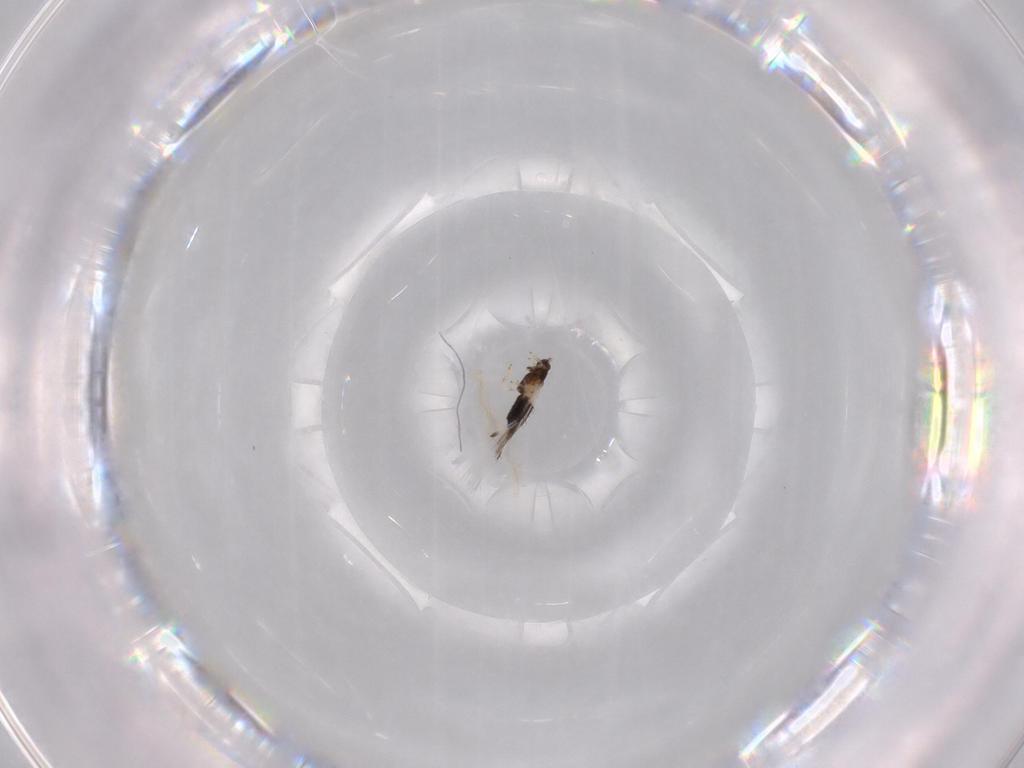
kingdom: Animalia
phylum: Arthropoda
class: Insecta
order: Thysanoptera
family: Thripidae
